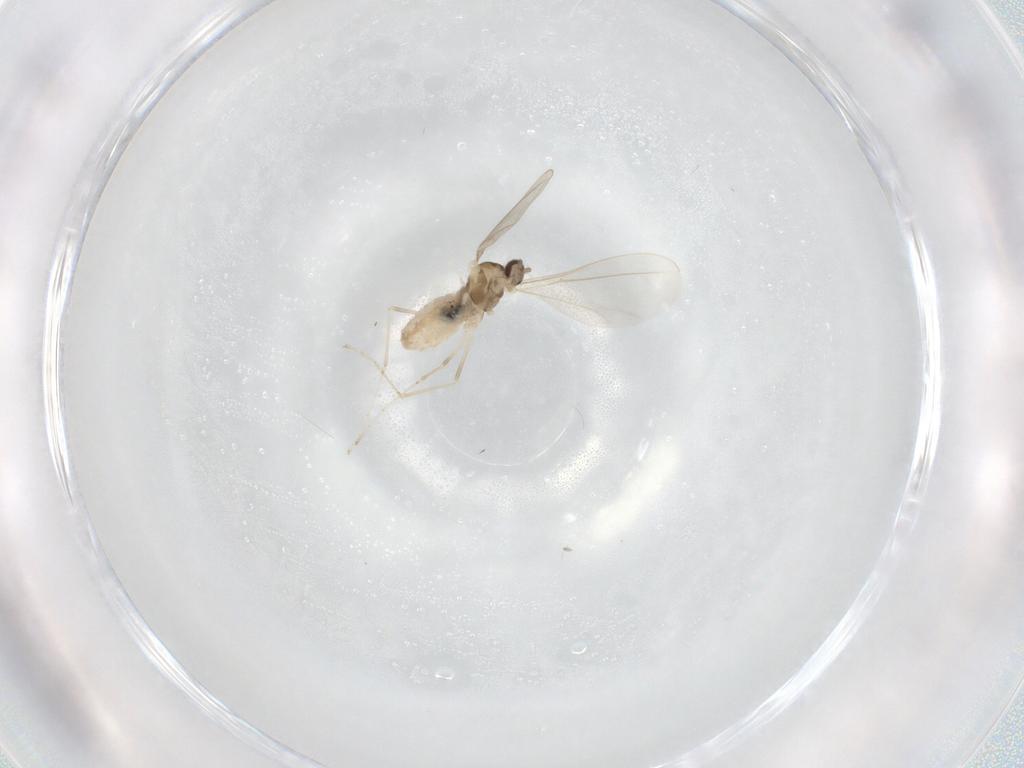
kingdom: Animalia
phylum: Arthropoda
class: Insecta
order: Diptera
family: Cecidomyiidae
